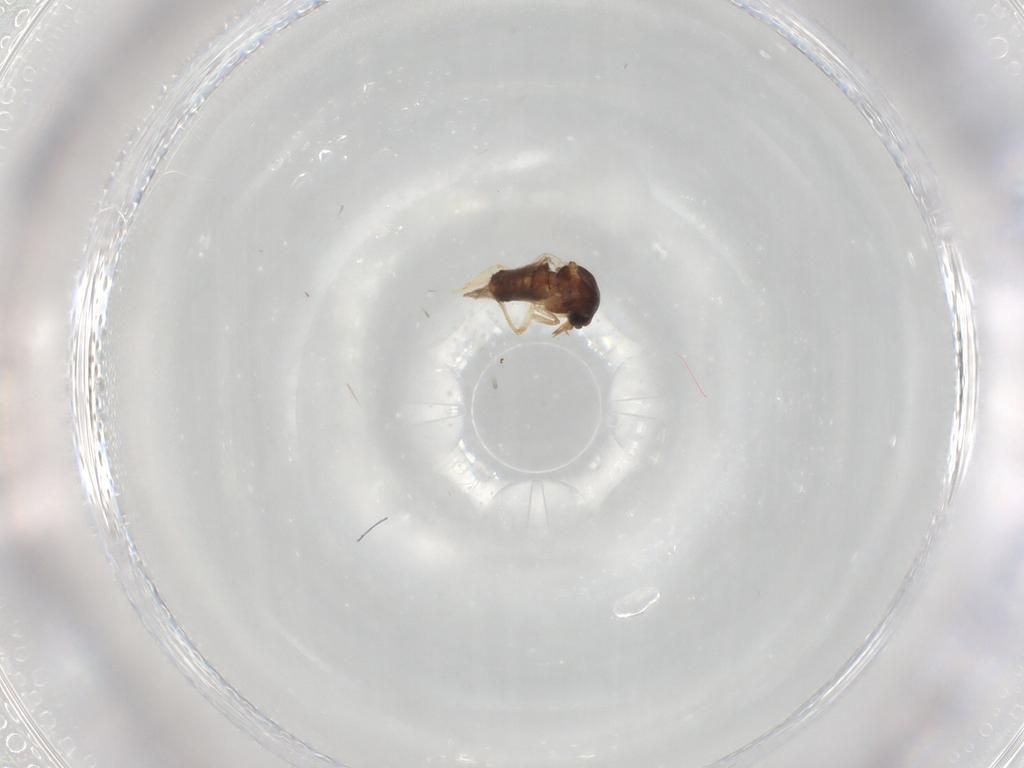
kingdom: Animalia
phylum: Arthropoda
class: Insecta
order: Diptera
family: Ceratopogonidae
